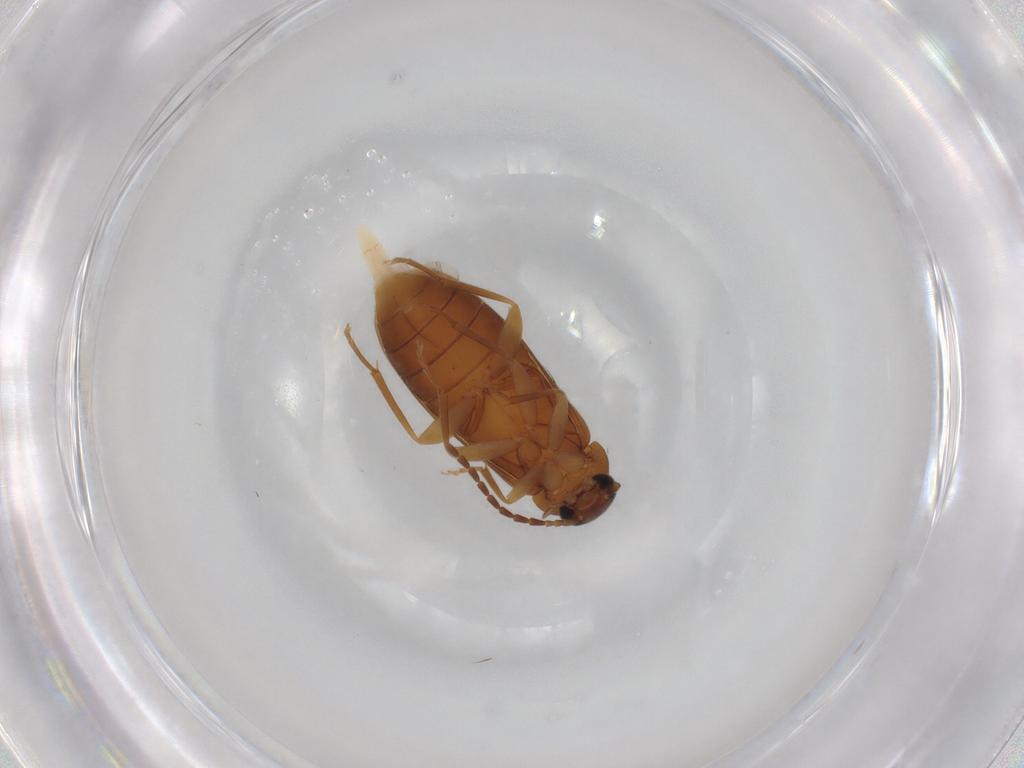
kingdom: Animalia
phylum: Arthropoda
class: Insecta
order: Coleoptera
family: Scraptiidae
